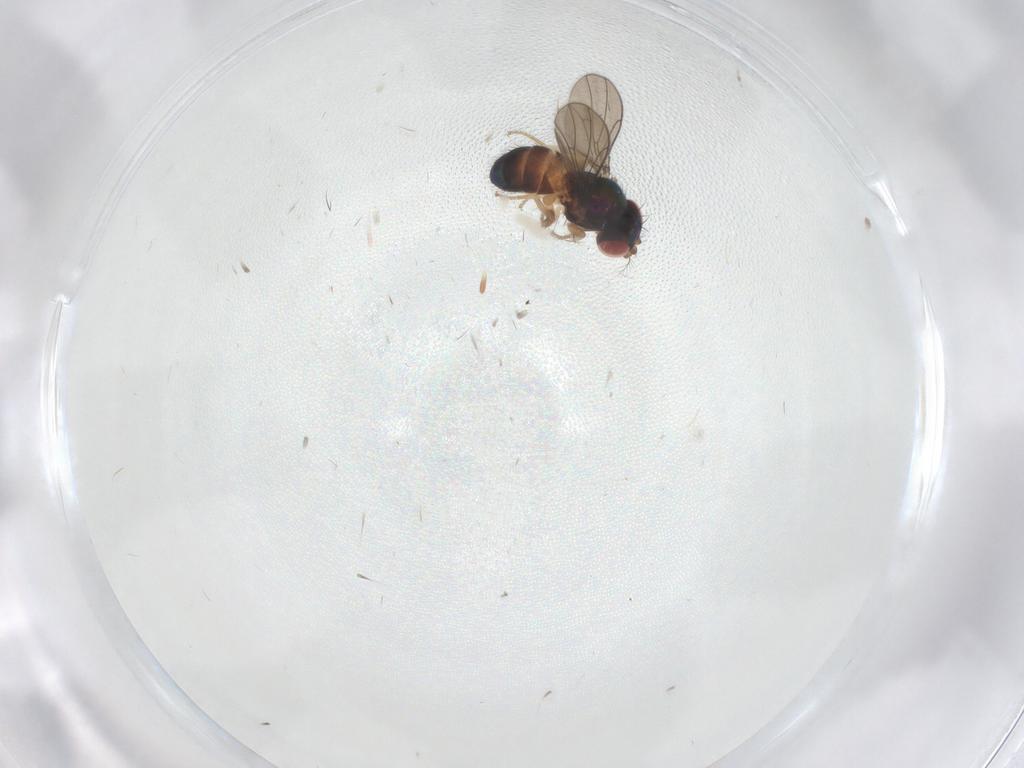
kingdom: Animalia
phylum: Arthropoda
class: Insecta
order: Diptera
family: Drosophilidae
